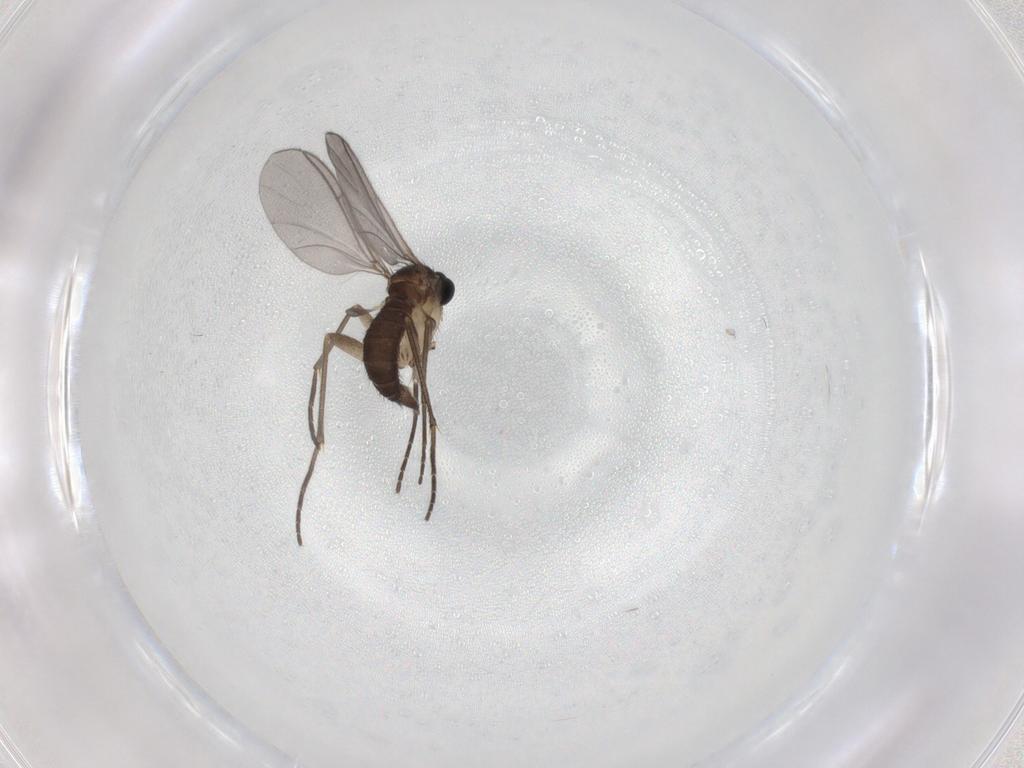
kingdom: Animalia
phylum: Arthropoda
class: Insecta
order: Diptera
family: Sciaridae
